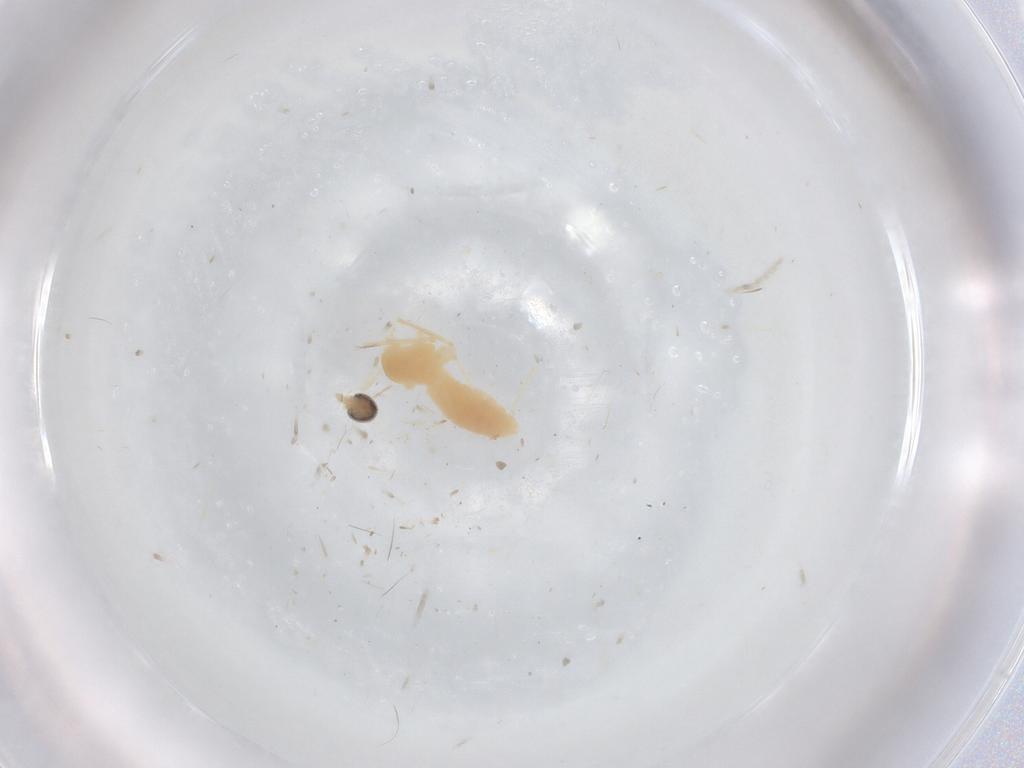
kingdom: Animalia
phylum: Arthropoda
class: Insecta
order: Diptera
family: Cecidomyiidae
